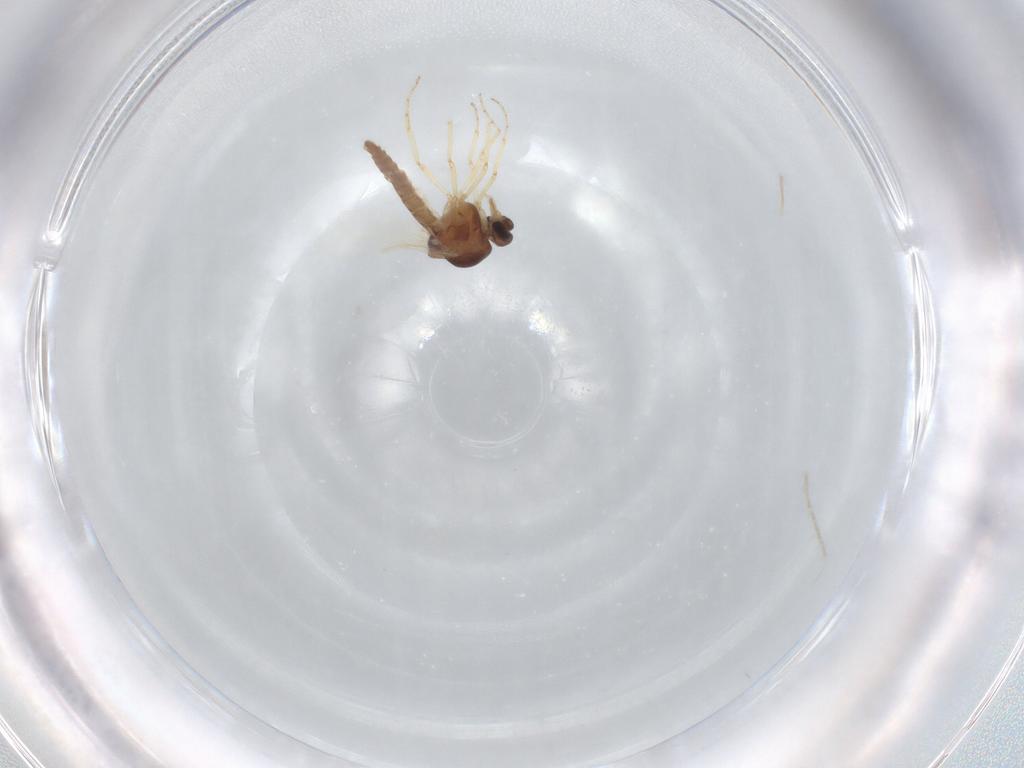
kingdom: Animalia
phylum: Arthropoda
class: Insecta
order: Diptera
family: Ceratopogonidae
